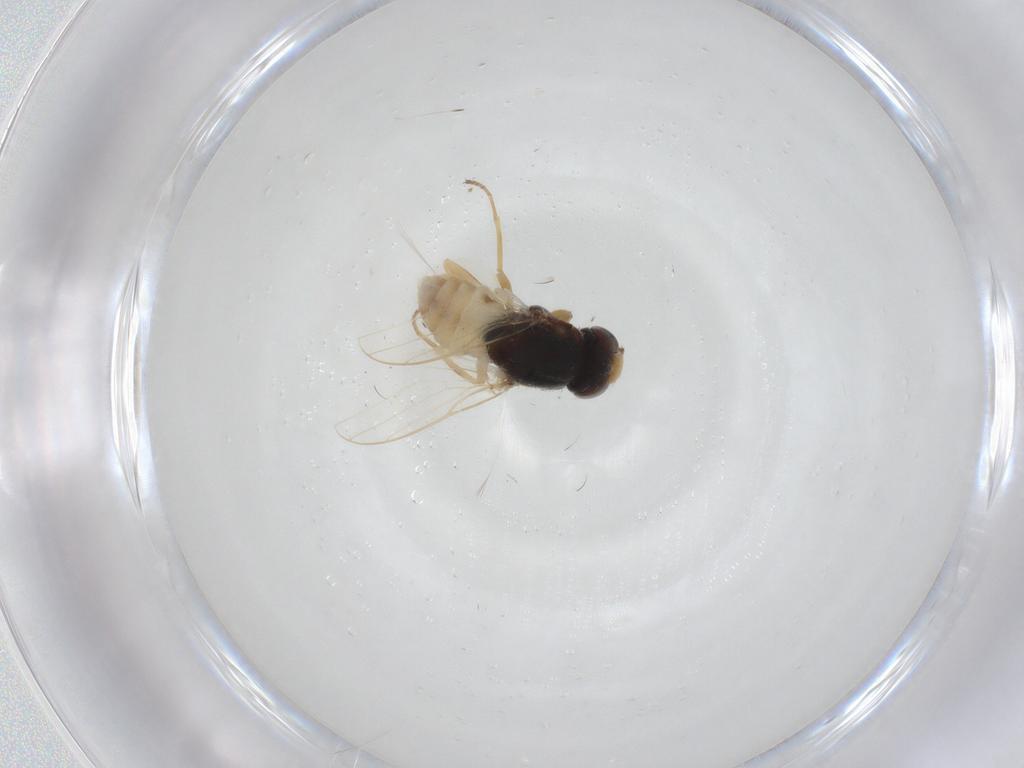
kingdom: Animalia
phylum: Arthropoda
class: Insecta
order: Diptera
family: Chloropidae
